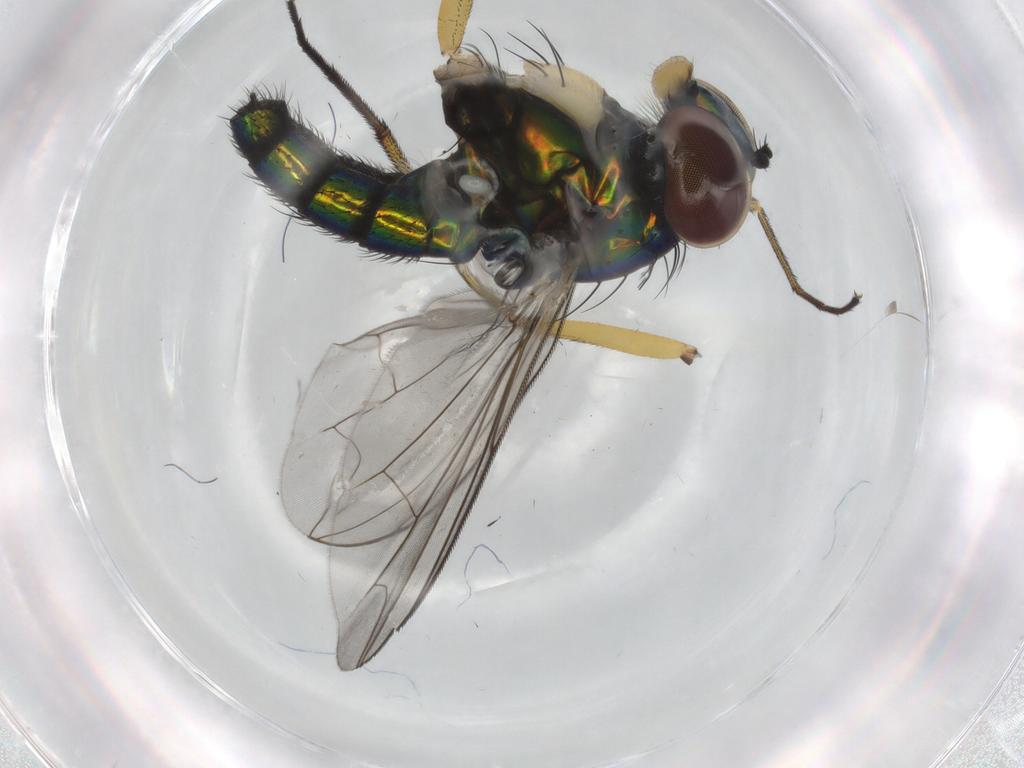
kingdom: Animalia
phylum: Arthropoda
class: Insecta
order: Diptera
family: Dolichopodidae
